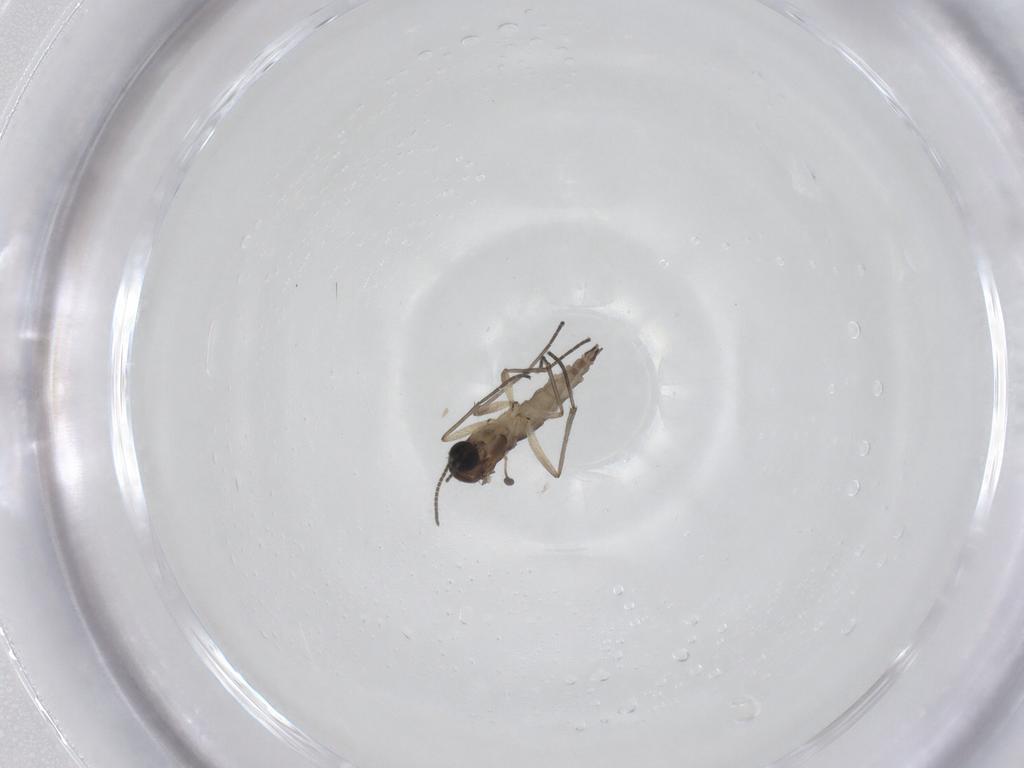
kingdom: Animalia
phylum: Arthropoda
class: Insecta
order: Diptera
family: Sciaridae
